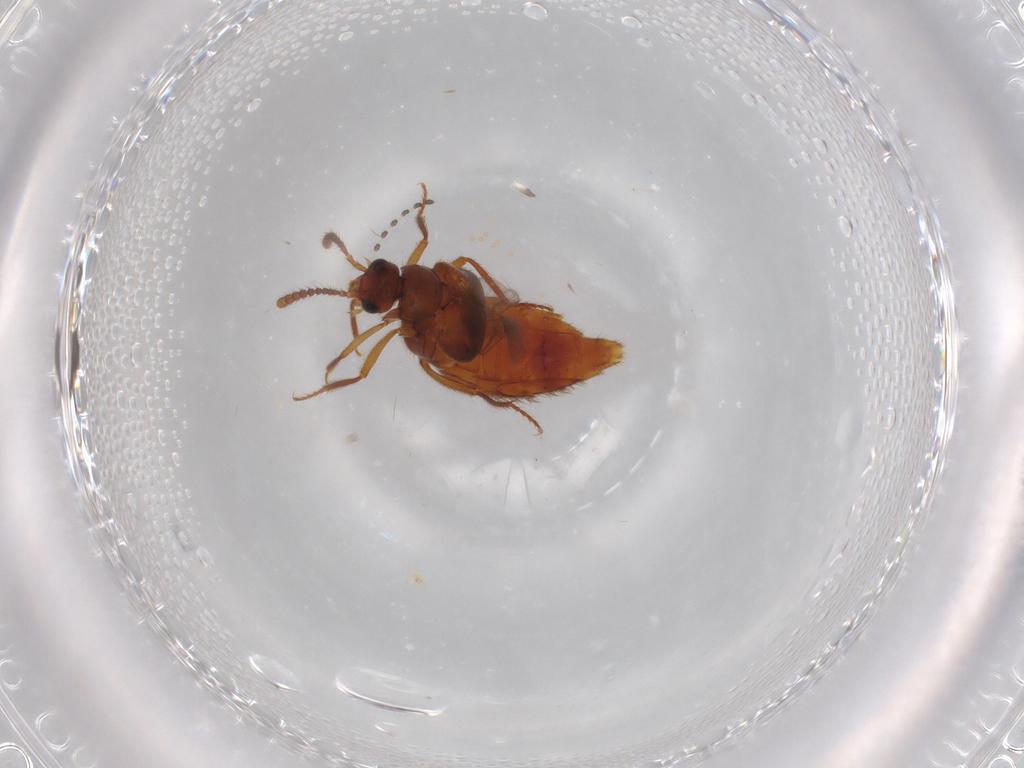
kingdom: Animalia
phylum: Arthropoda
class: Insecta
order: Coleoptera
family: Staphylinidae
